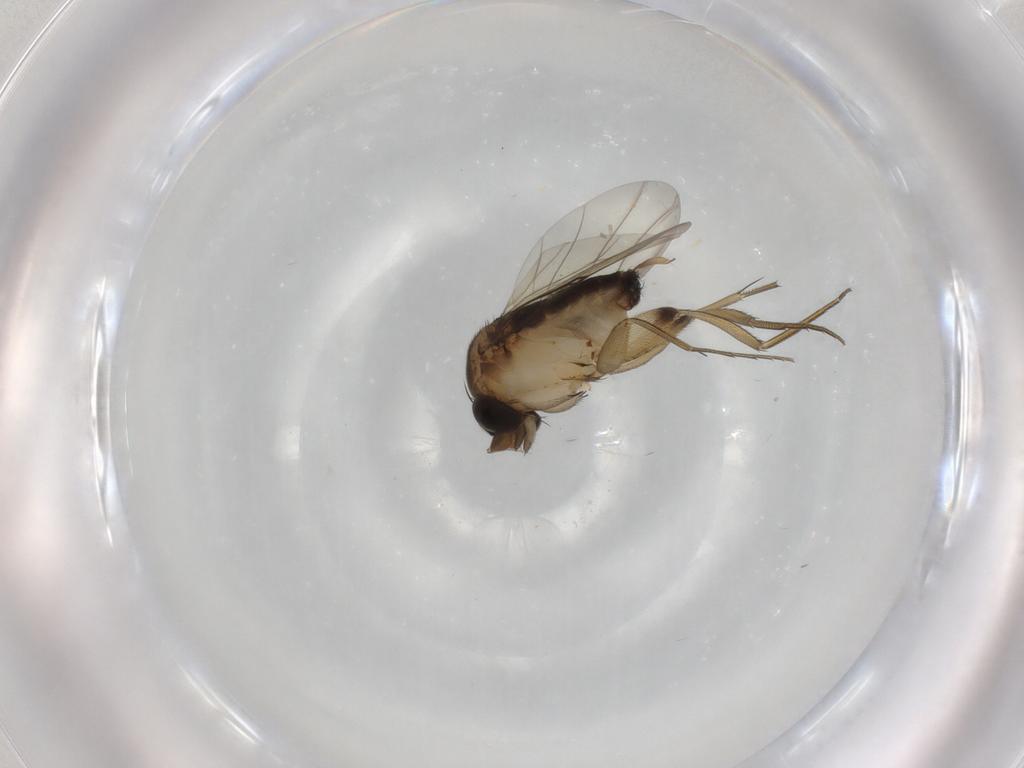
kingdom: Animalia
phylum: Arthropoda
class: Insecta
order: Diptera
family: Phoridae
